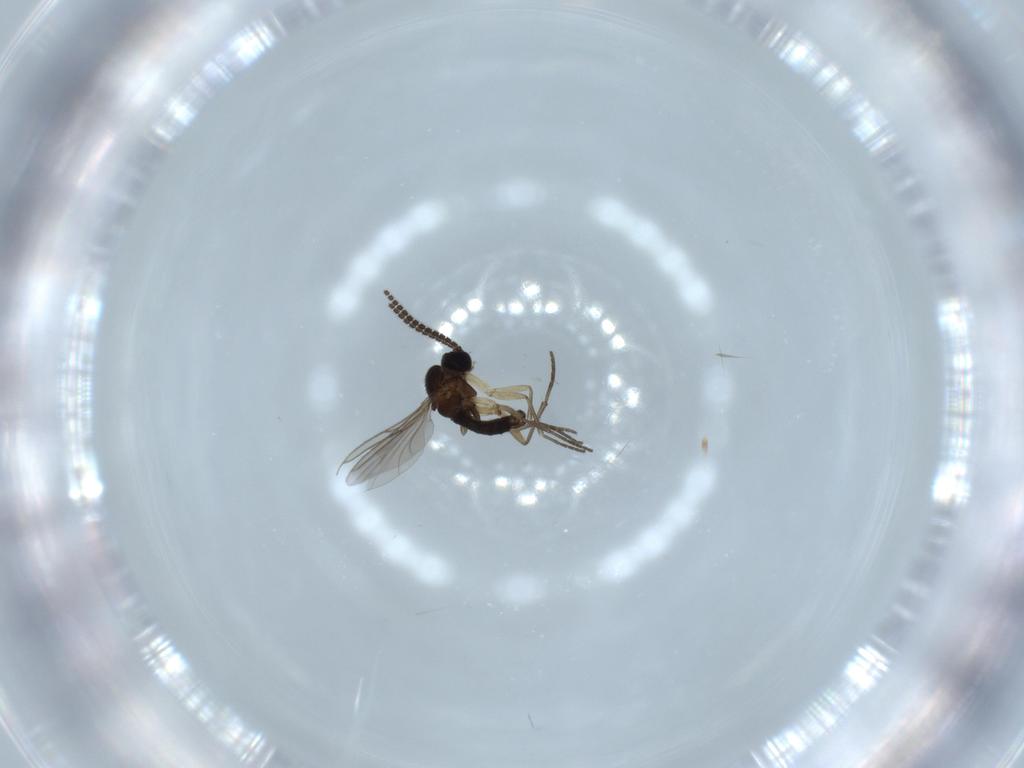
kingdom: Animalia
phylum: Arthropoda
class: Insecta
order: Diptera
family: Sciaridae
